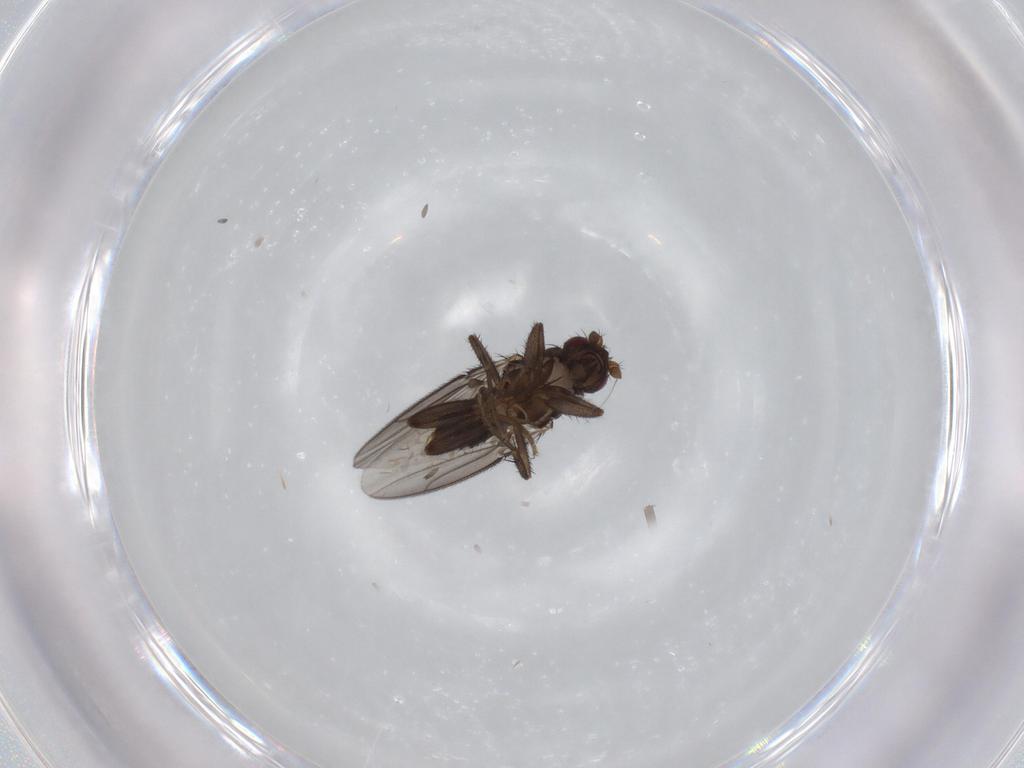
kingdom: Animalia
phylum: Arthropoda
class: Insecta
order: Diptera
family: Sphaeroceridae
